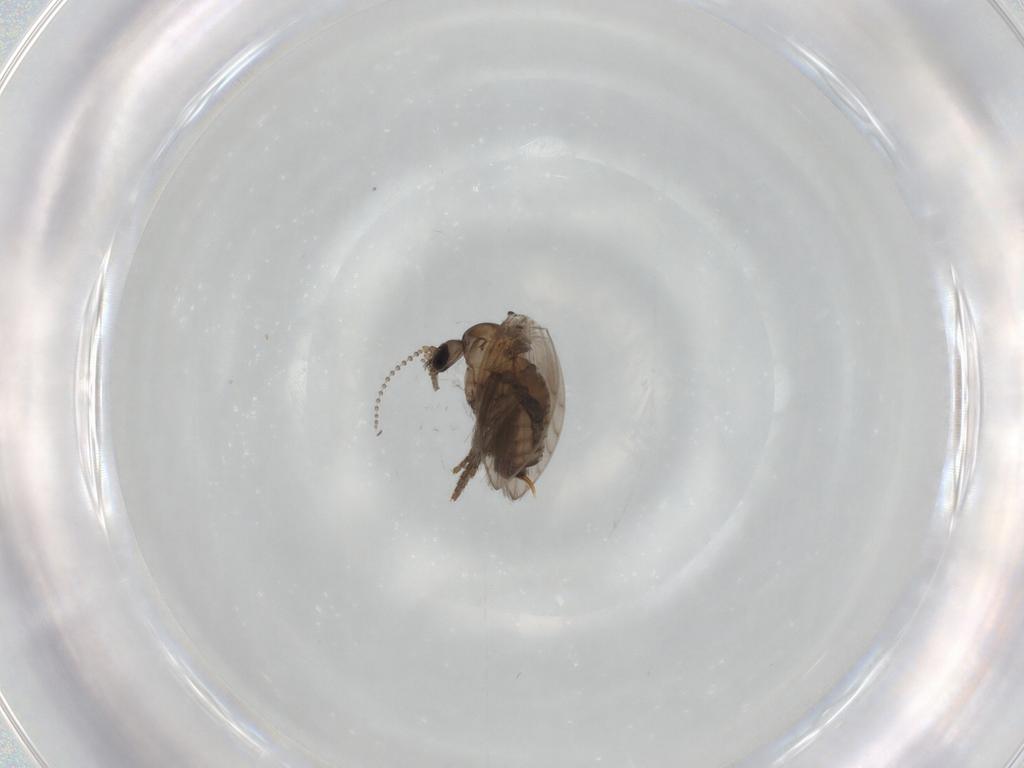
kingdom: Animalia
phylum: Arthropoda
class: Insecta
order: Diptera
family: Psychodidae
